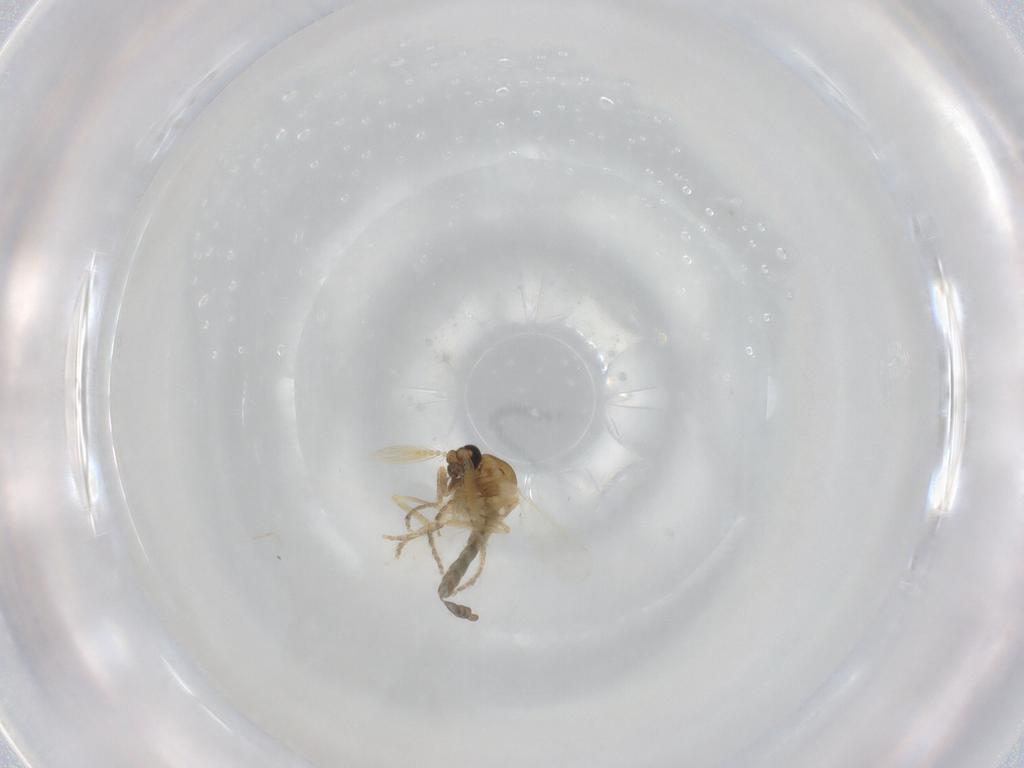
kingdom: Animalia
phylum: Arthropoda
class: Insecta
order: Diptera
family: Ceratopogonidae
